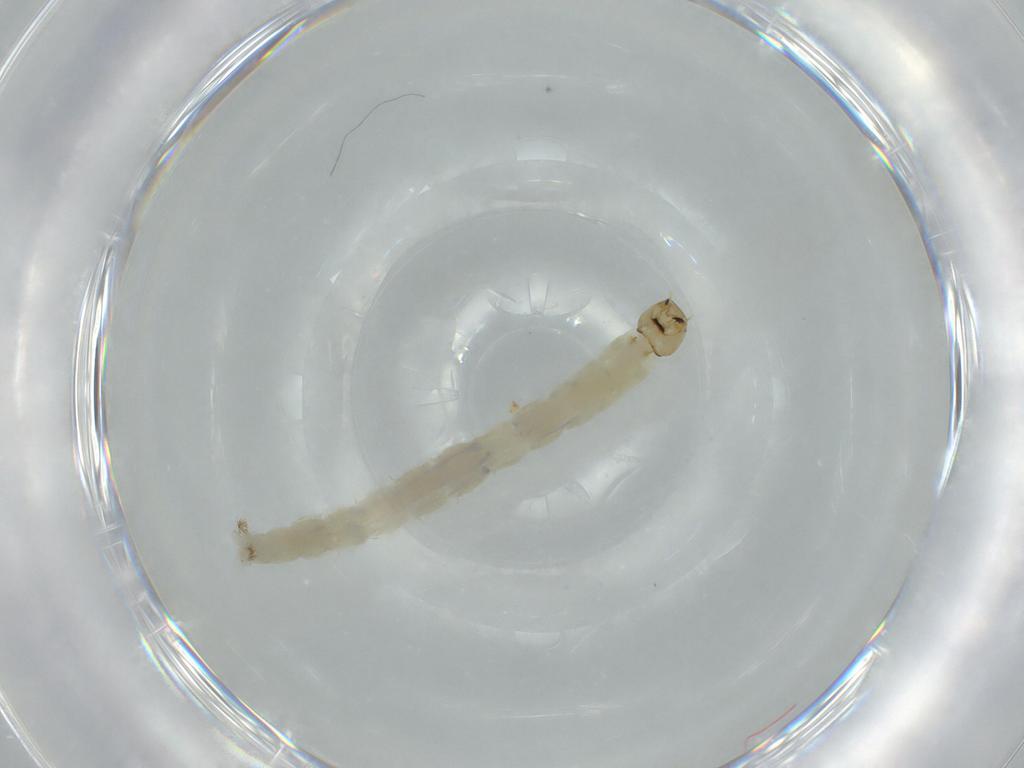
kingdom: Animalia
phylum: Arthropoda
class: Insecta
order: Diptera
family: Chironomidae
